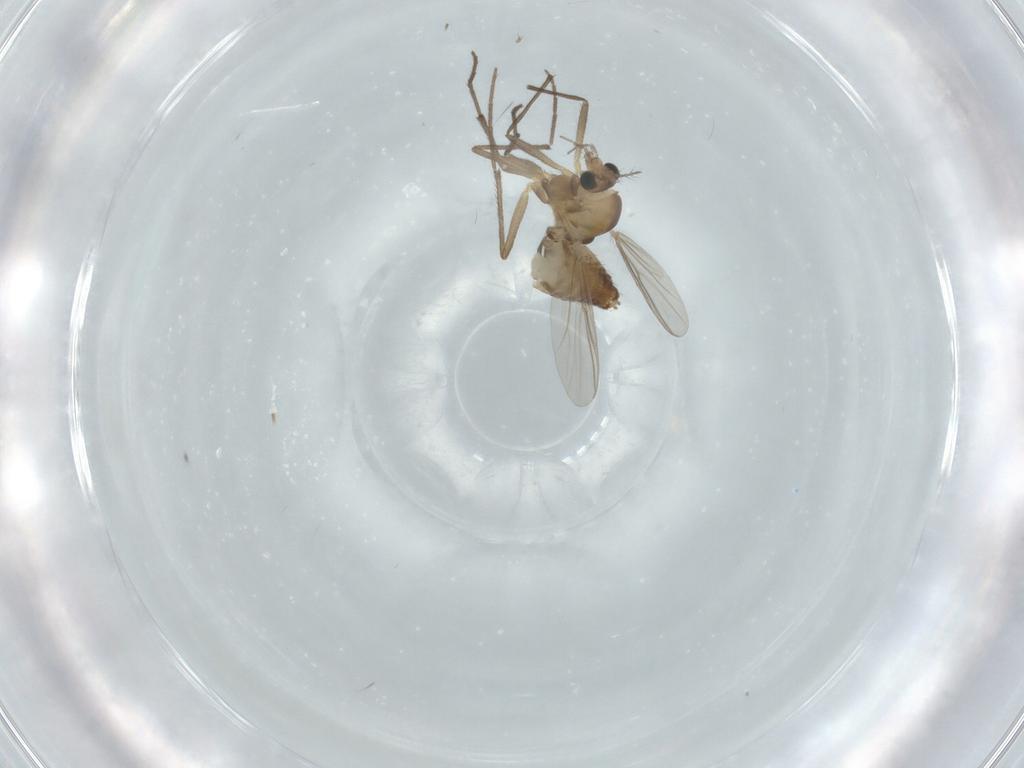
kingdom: Animalia
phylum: Arthropoda
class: Insecta
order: Diptera
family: Chironomidae
